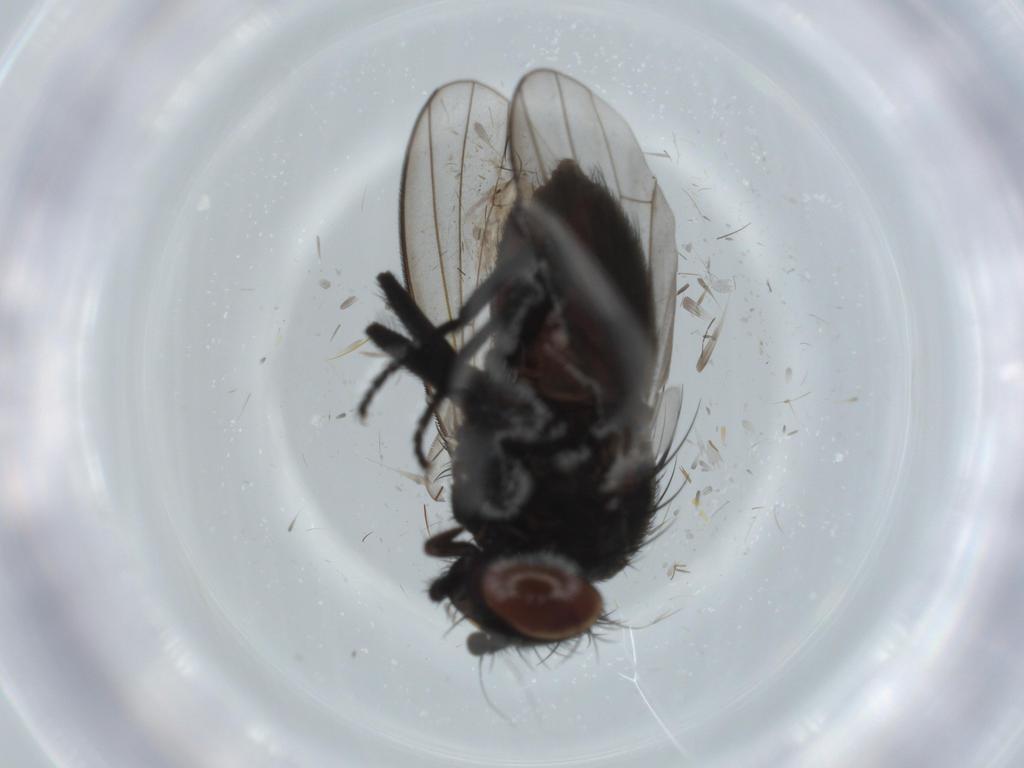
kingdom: Animalia
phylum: Arthropoda
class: Insecta
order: Diptera
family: Milichiidae
